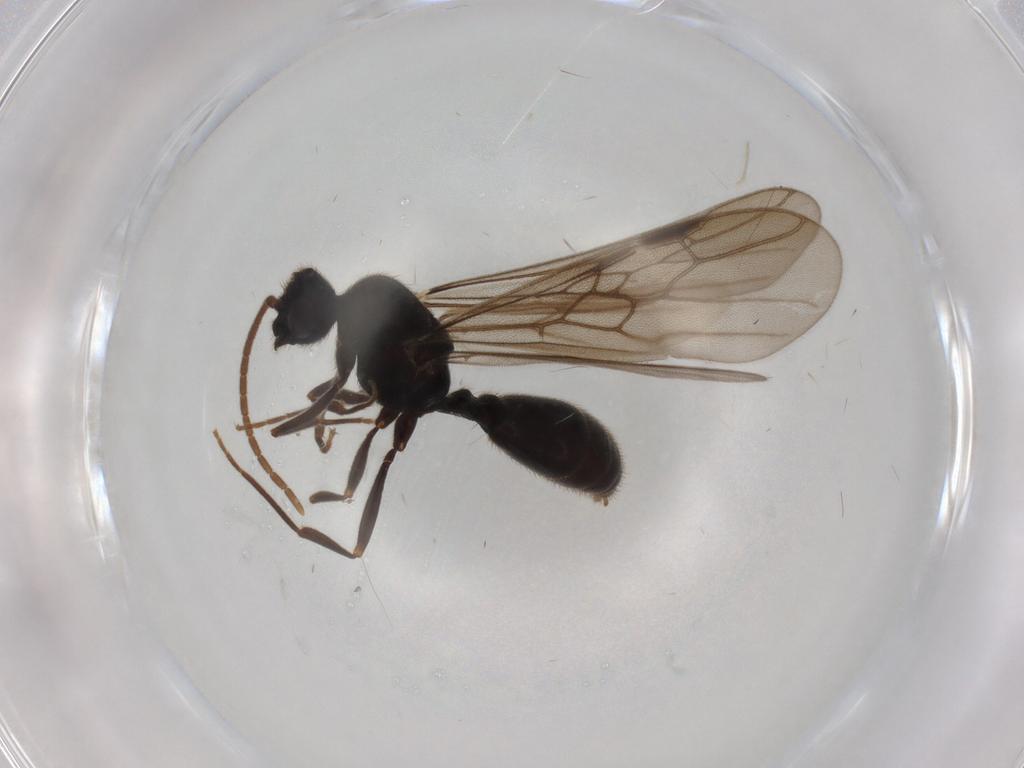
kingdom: Animalia
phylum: Arthropoda
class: Insecta
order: Hymenoptera
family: Formicidae
